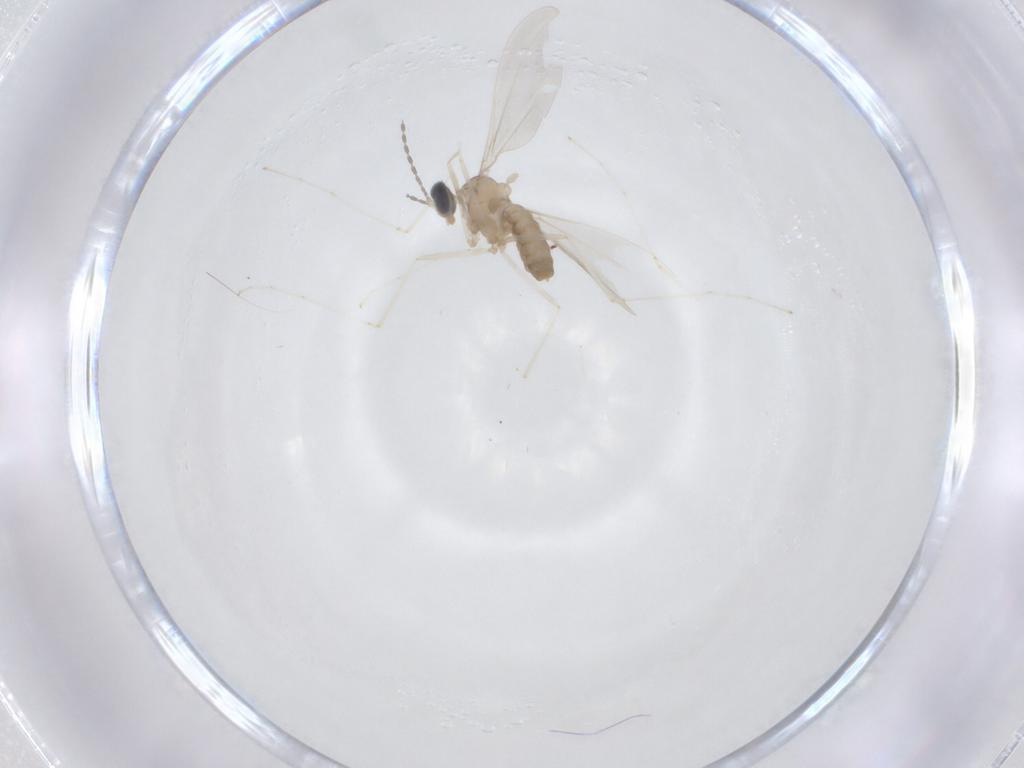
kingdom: Animalia
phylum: Arthropoda
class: Insecta
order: Diptera
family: Cecidomyiidae
